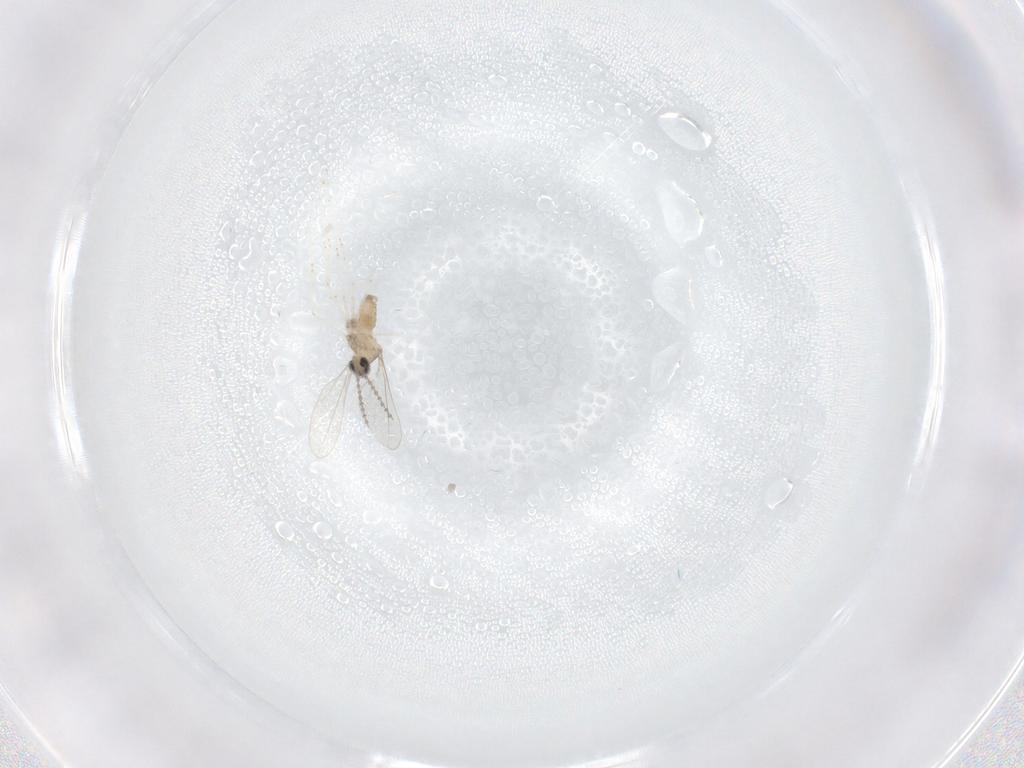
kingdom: Animalia
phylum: Arthropoda
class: Insecta
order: Diptera
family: Cecidomyiidae
